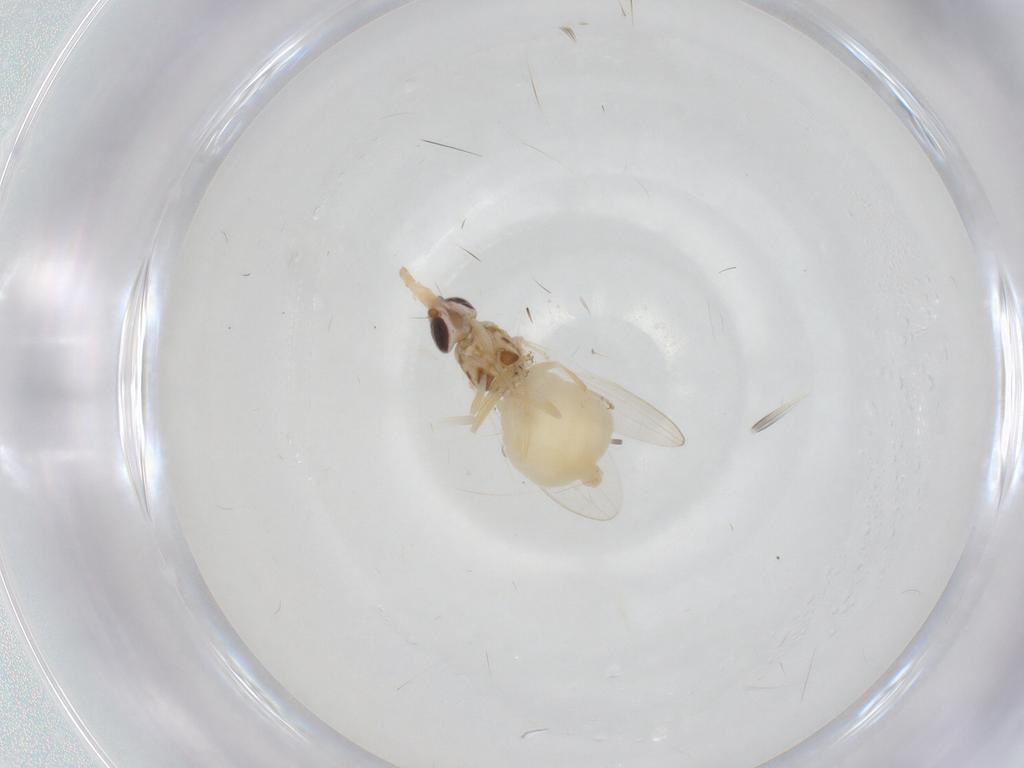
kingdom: Animalia
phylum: Arthropoda
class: Insecta
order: Diptera
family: Chloropidae
